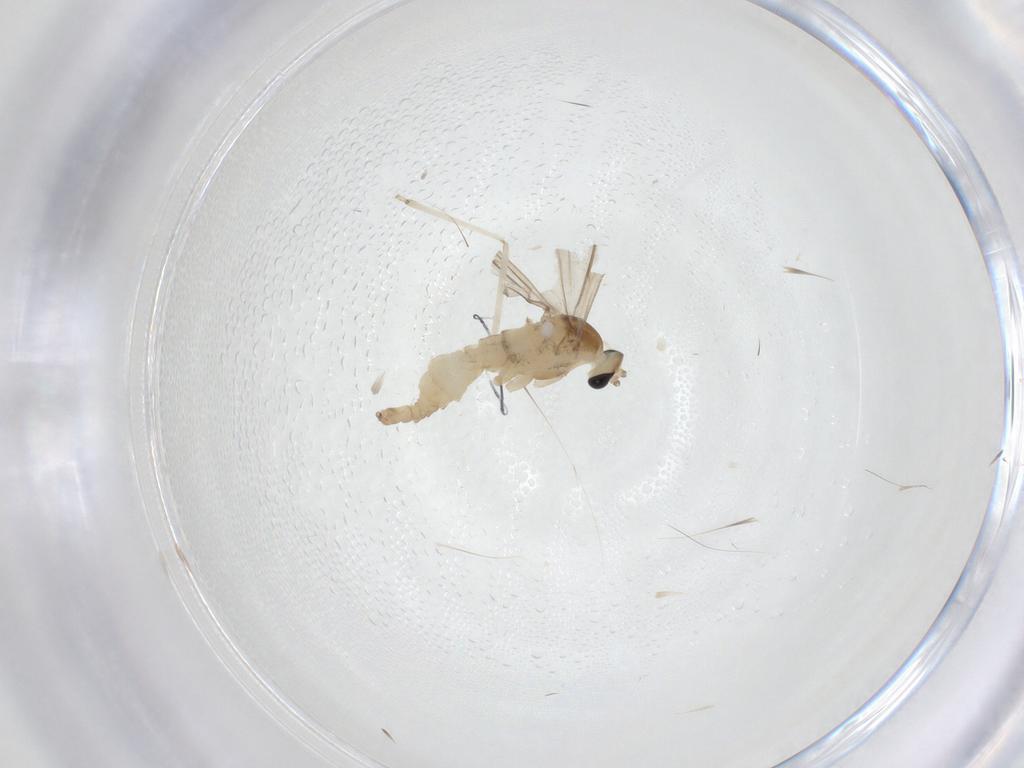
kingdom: Animalia
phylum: Arthropoda
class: Insecta
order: Diptera
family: Cecidomyiidae
